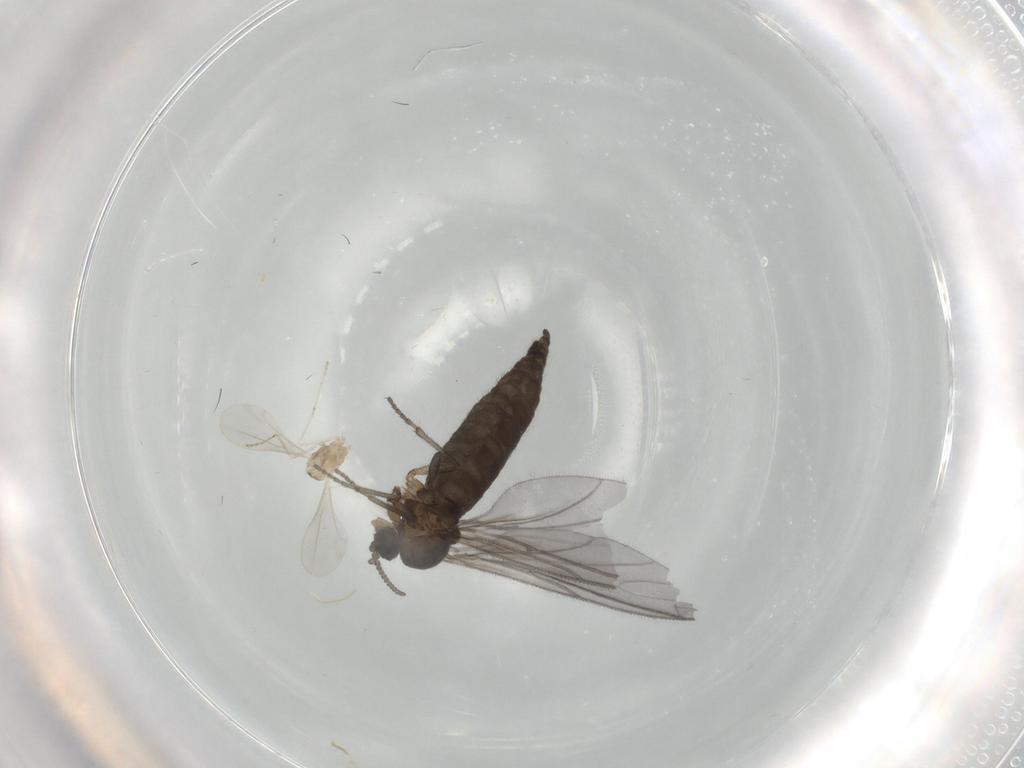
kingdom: Animalia
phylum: Arthropoda
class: Insecta
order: Diptera
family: Cecidomyiidae
